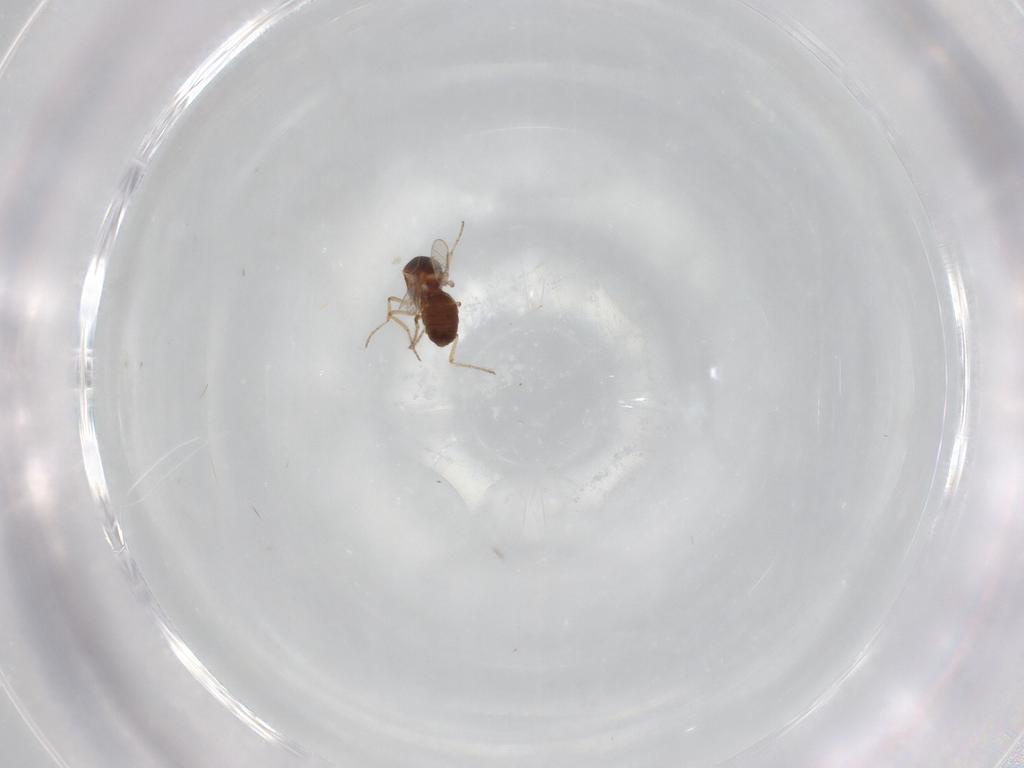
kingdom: Animalia
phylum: Arthropoda
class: Insecta
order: Diptera
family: Ceratopogonidae
